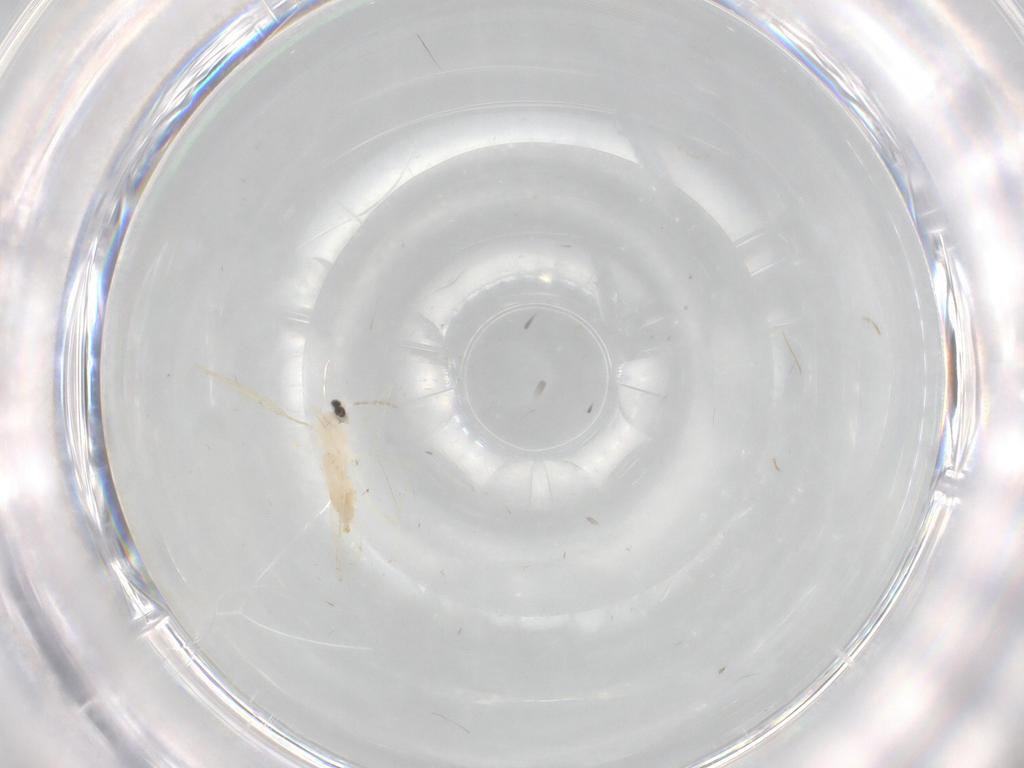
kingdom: Animalia
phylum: Arthropoda
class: Insecta
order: Diptera
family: Cecidomyiidae
